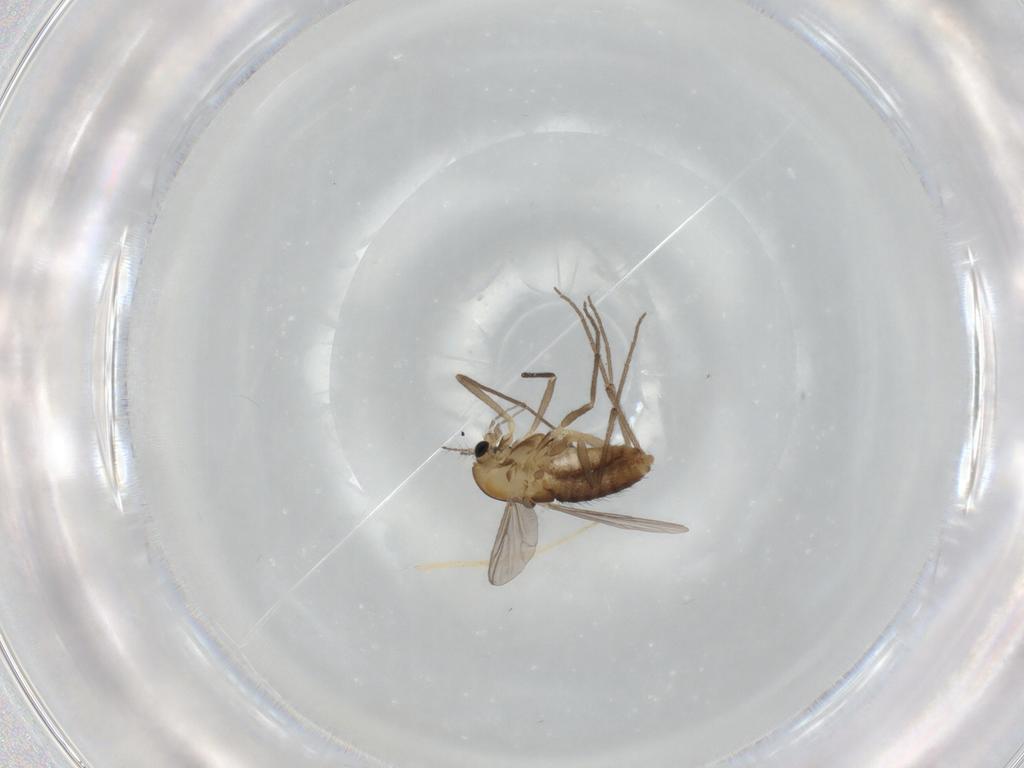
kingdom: Animalia
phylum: Arthropoda
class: Insecta
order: Diptera
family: Chironomidae
